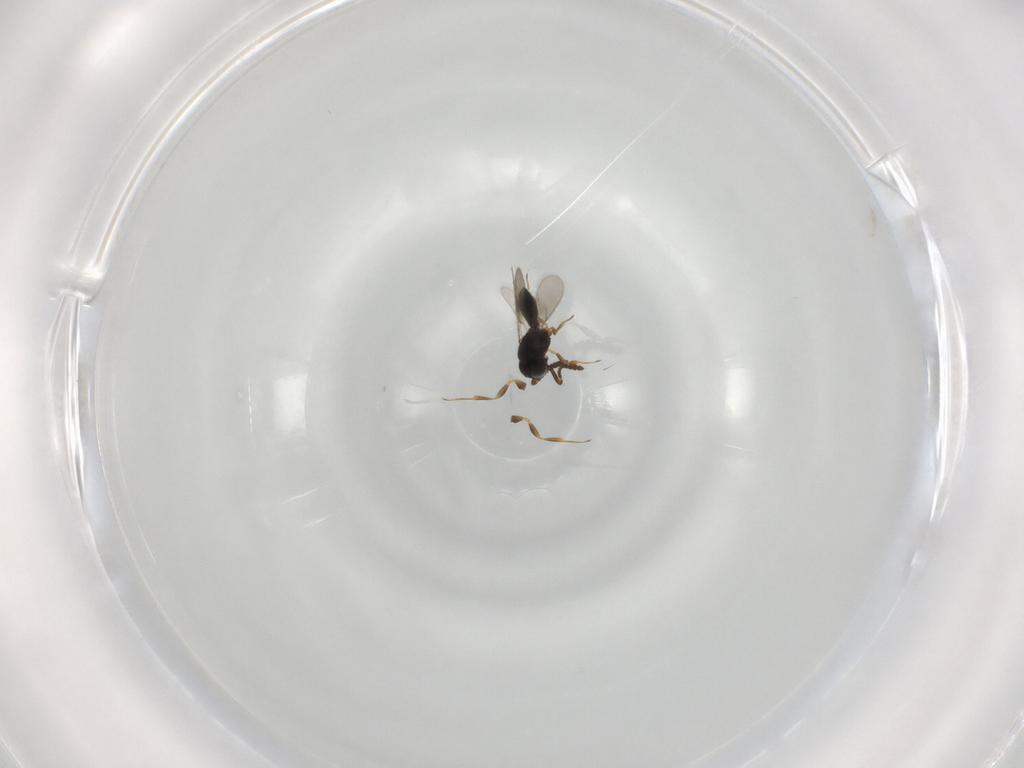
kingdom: Animalia
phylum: Arthropoda
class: Insecta
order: Hymenoptera
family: Scelionidae
